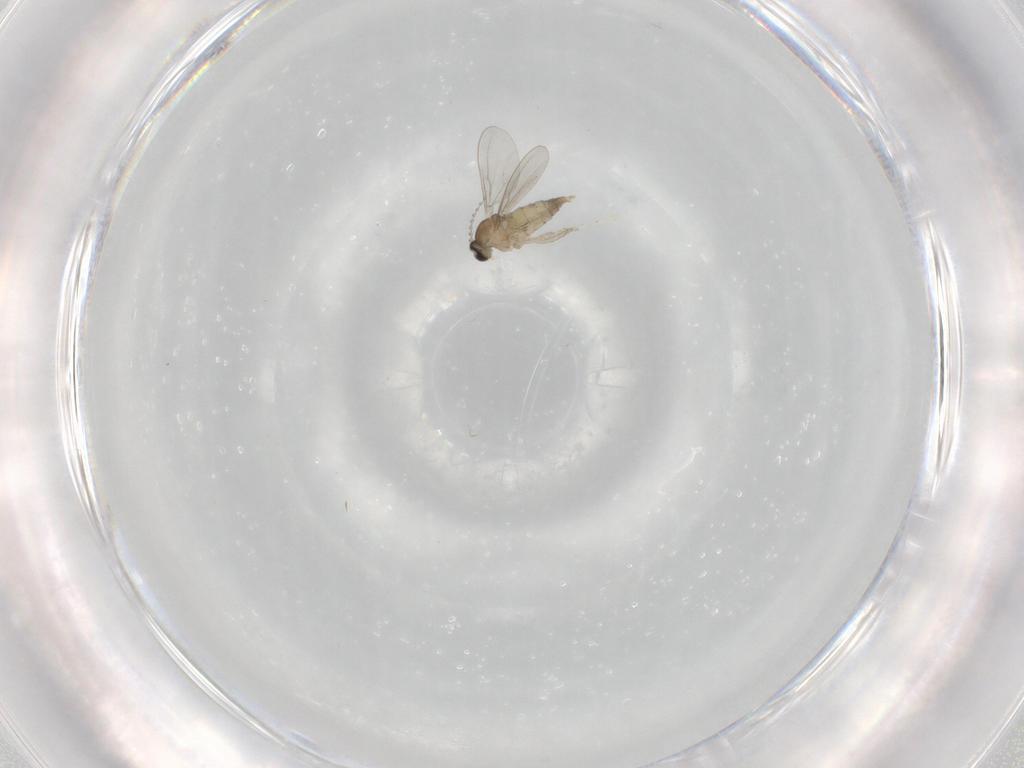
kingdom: Animalia
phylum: Arthropoda
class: Insecta
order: Diptera
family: Cecidomyiidae
